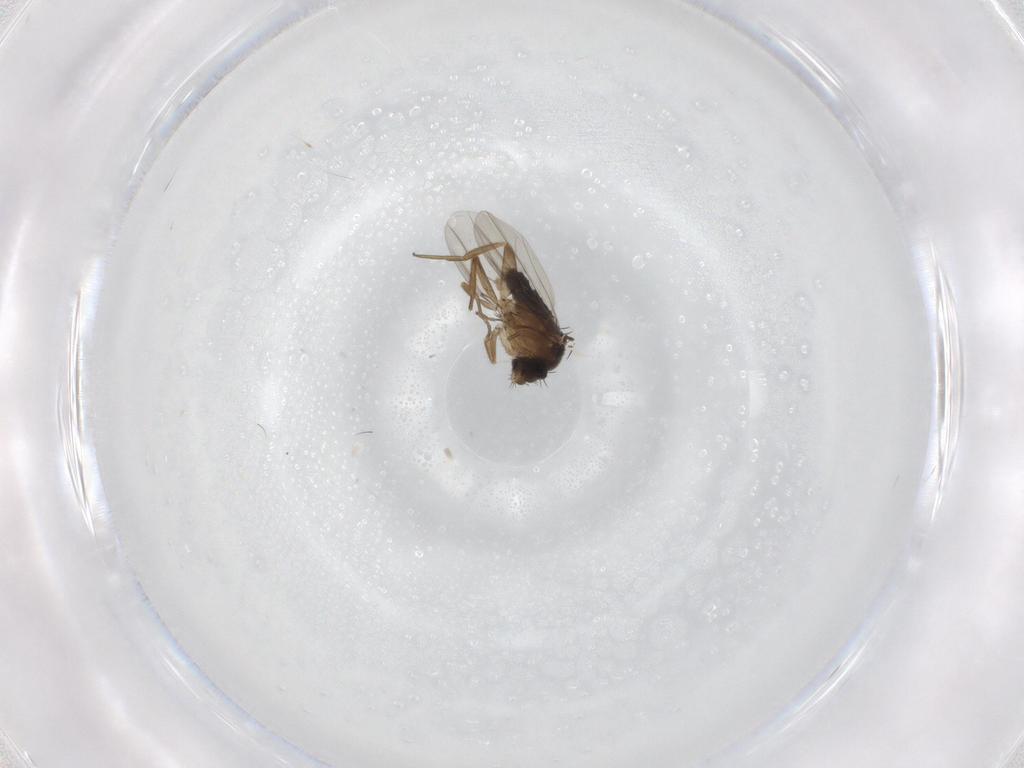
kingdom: Animalia
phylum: Arthropoda
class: Insecta
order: Diptera
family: Phoridae
